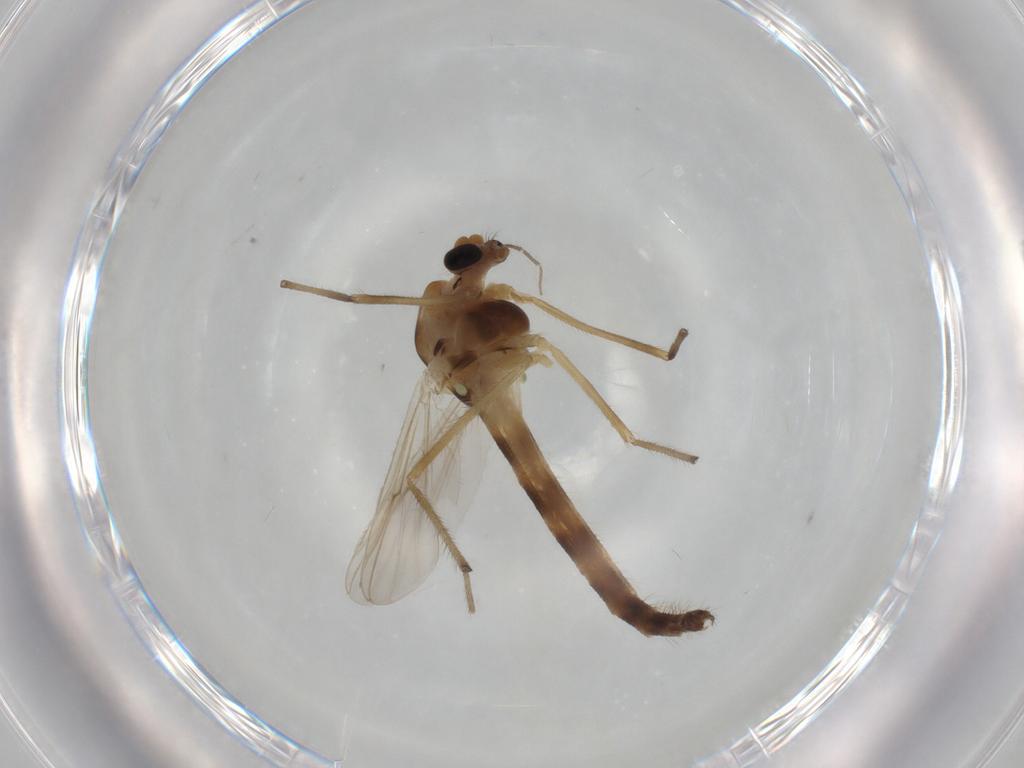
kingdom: Animalia
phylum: Arthropoda
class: Insecta
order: Diptera
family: Chironomidae
